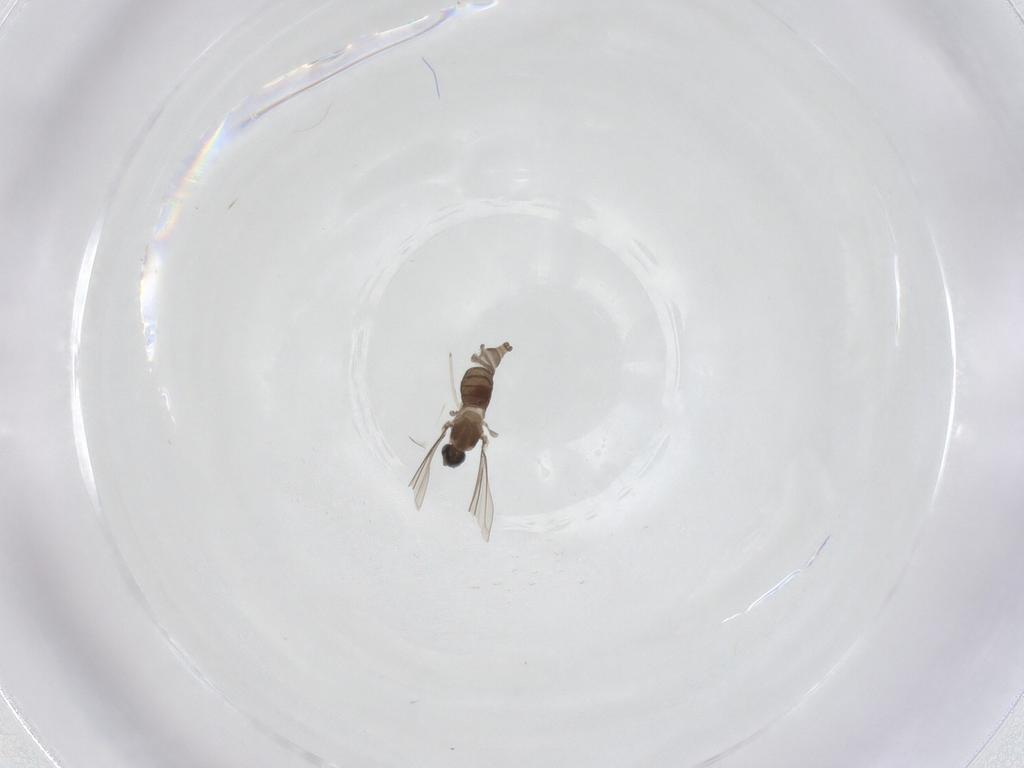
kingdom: Animalia
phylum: Arthropoda
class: Insecta
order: Diptera
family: Cecidomyiidae
